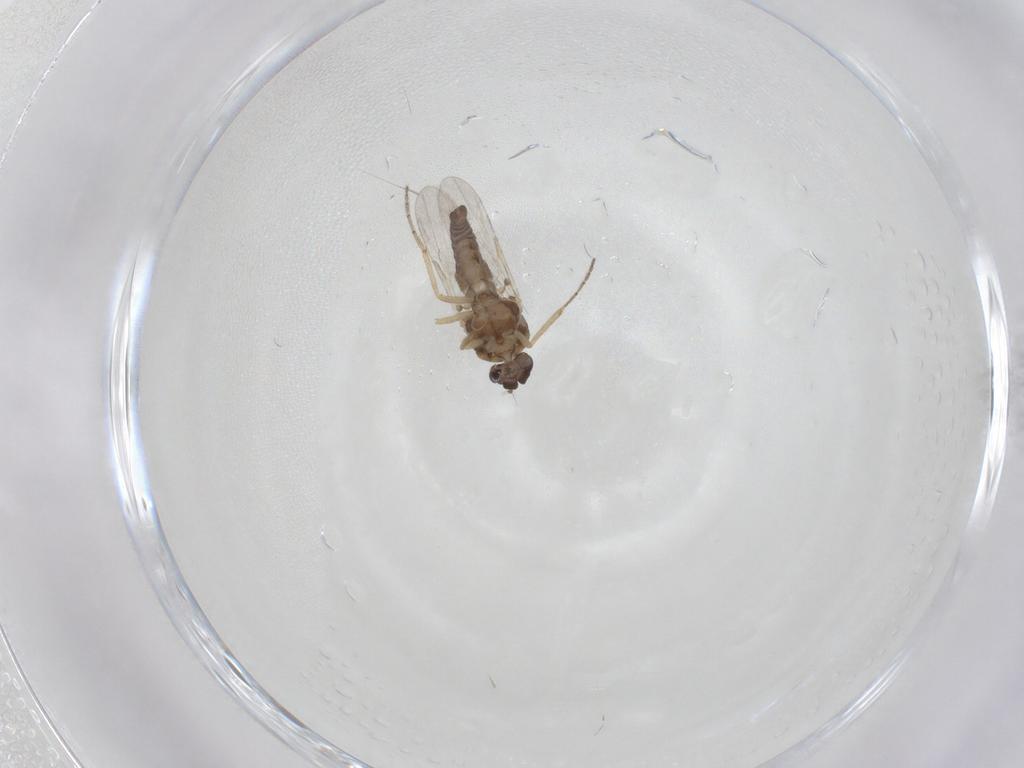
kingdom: Animalia
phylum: Arthropoda
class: Insecta
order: Diptera
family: Ceratopogonidae
